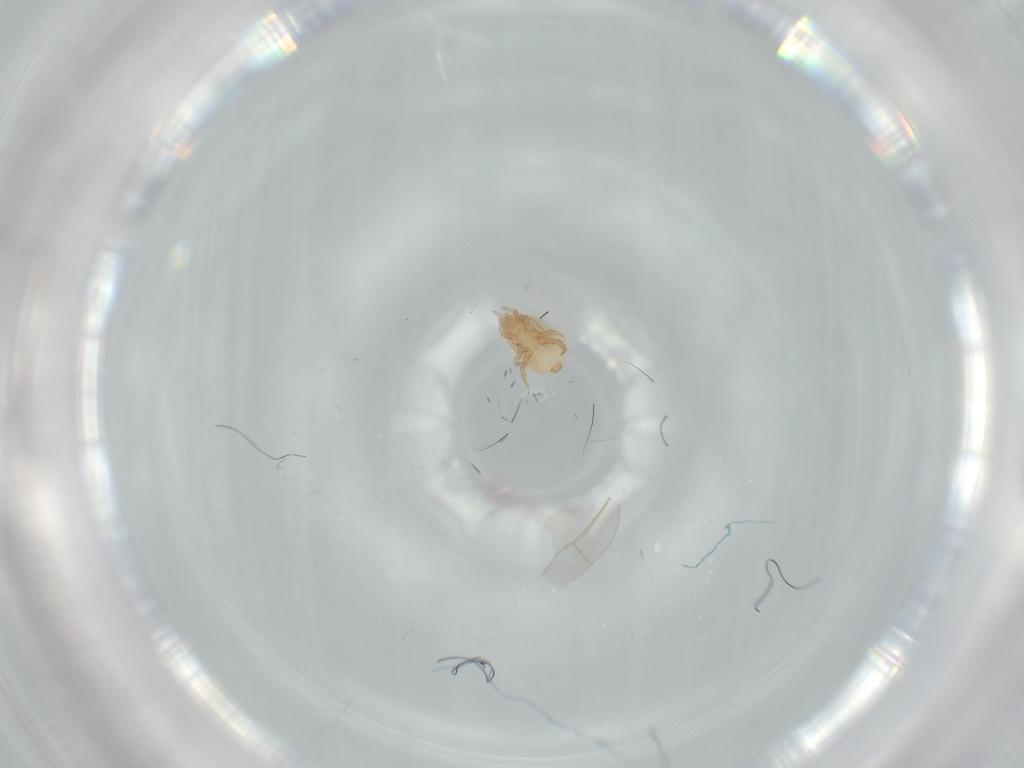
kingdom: Animalia
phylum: Arthropoda
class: Arachnida
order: Mesostigmata
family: Halolaelapidae
